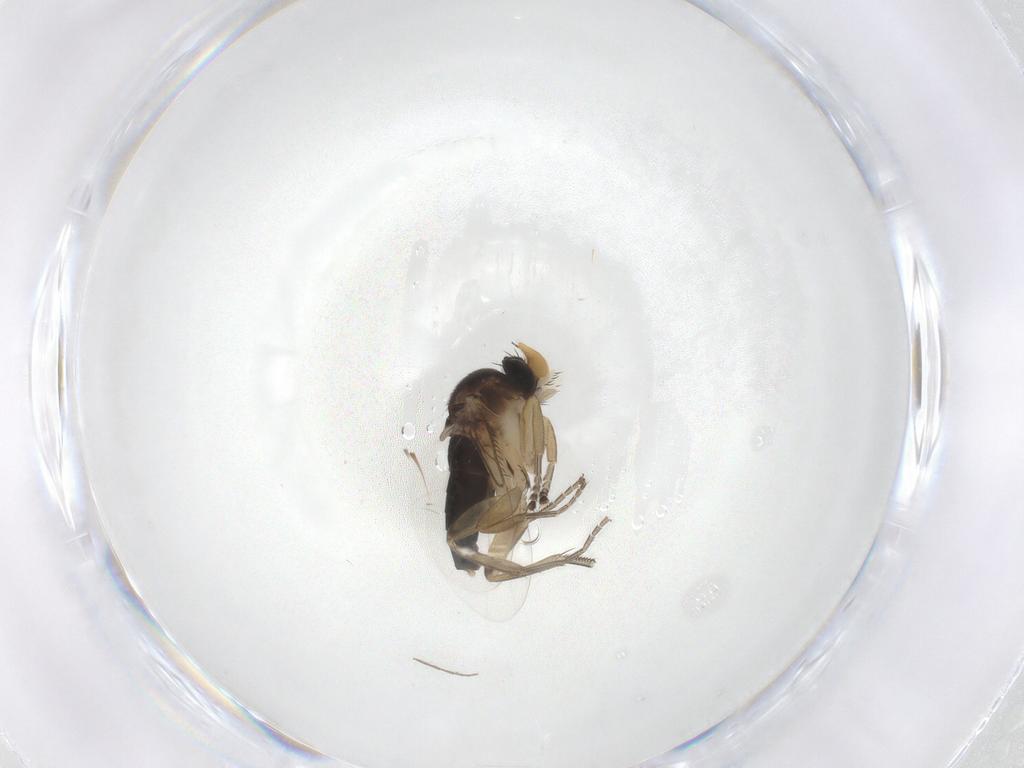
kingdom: Animalia
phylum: Arthropoda
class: Insecta
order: Diptera
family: Phoridae
